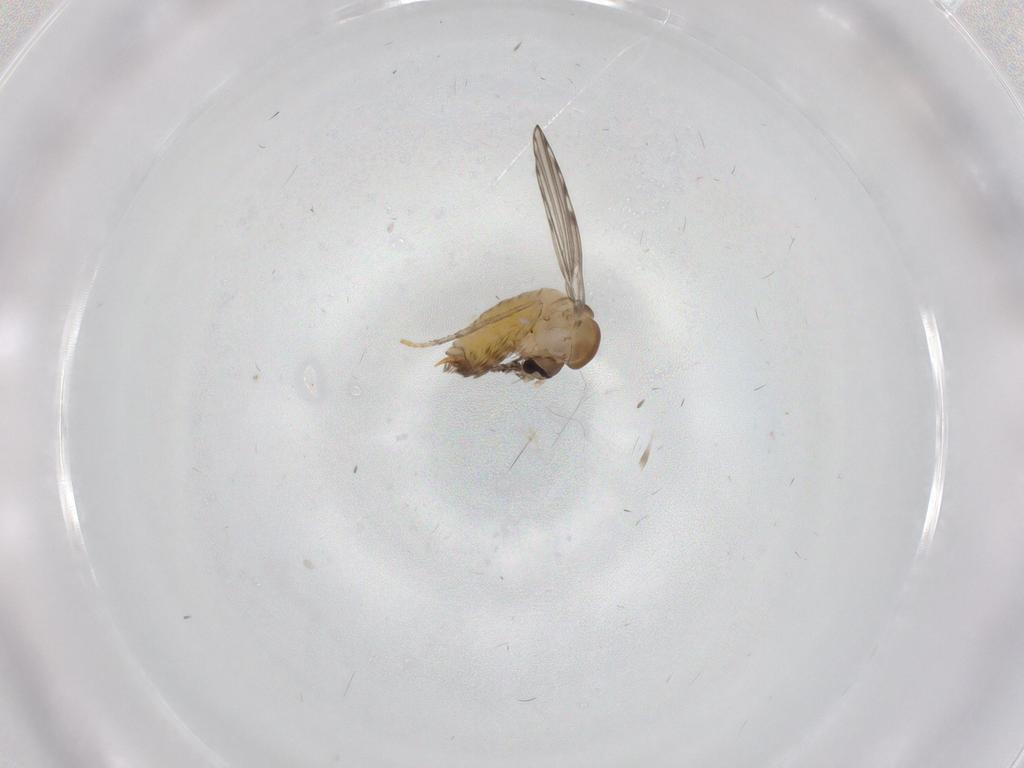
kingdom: Animalia
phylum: Arthropoda
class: Insecta
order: Diptera
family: Psychodidae
